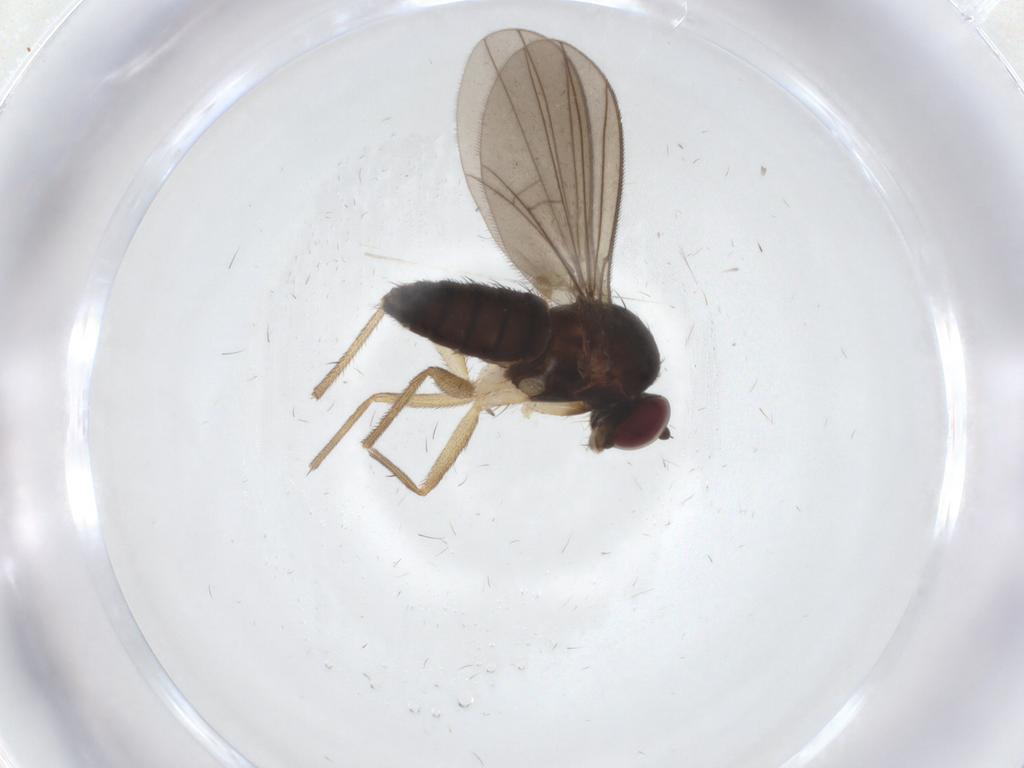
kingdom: Animalia
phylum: Arthropoda
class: Insecta
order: Diptera
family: Dolichopodidae
